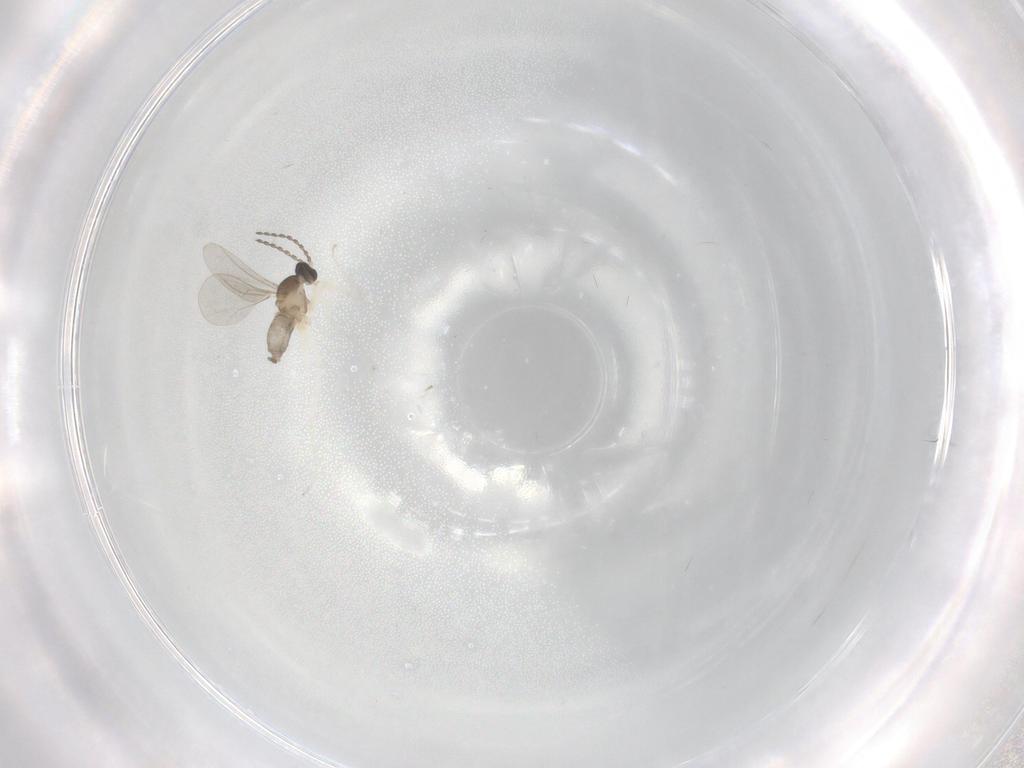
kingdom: Animalia
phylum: Arthropoda
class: Insecta
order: Diptera
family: Cecidomyiidae
